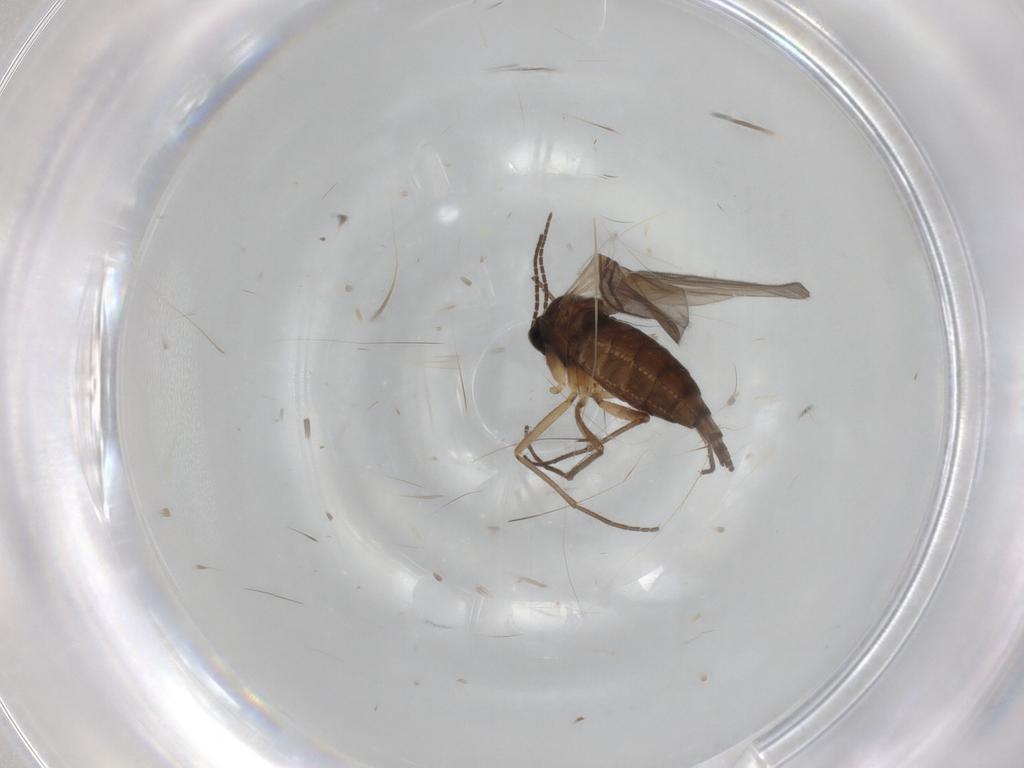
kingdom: Animalia
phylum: Arthropoda
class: Insecta
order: Diptera
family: Sciaridae
